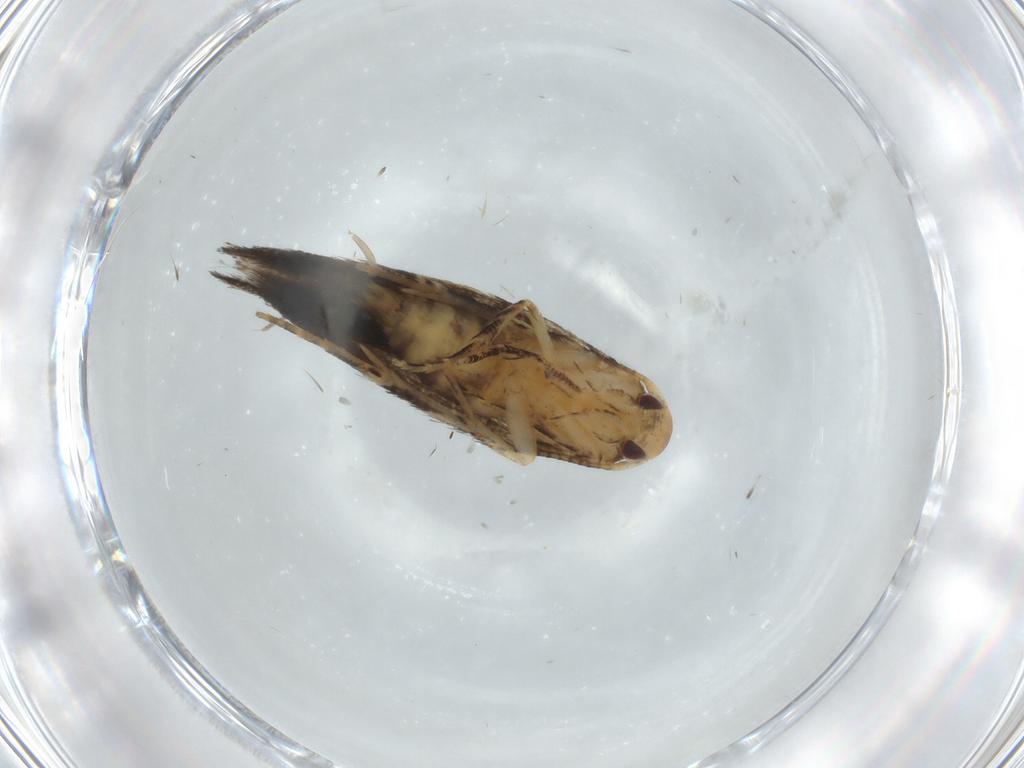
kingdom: Animalia
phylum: Arthropoda
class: Insecta
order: Lepidoptera
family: Momphidae
